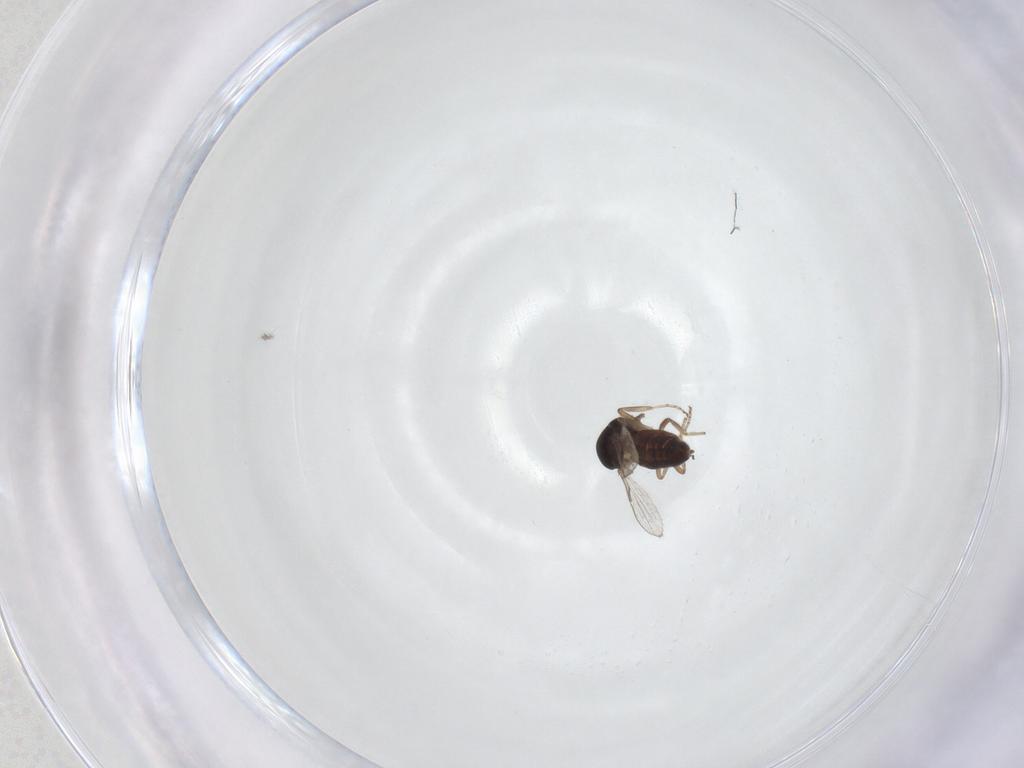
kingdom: Animalia
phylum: Arthropoda
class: Insecta
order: Diptera
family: Ceratopogonidae
